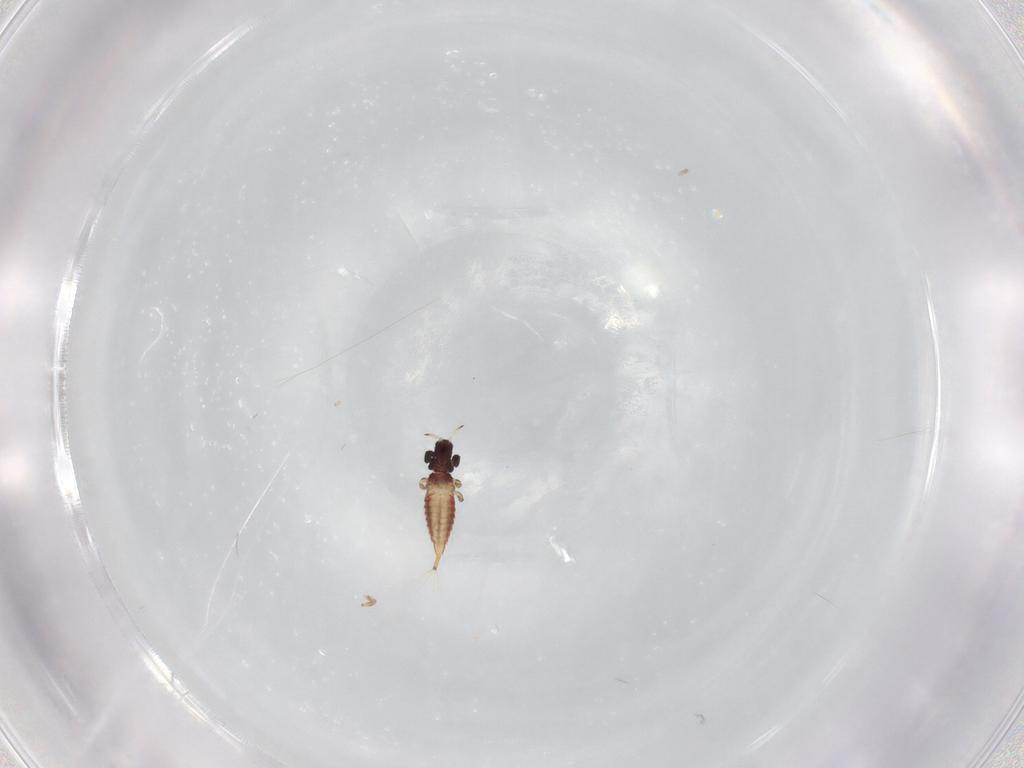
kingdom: Animalia
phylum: Arthropoda
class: Insecta
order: Thysanoptera
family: Phlaeothripidae
